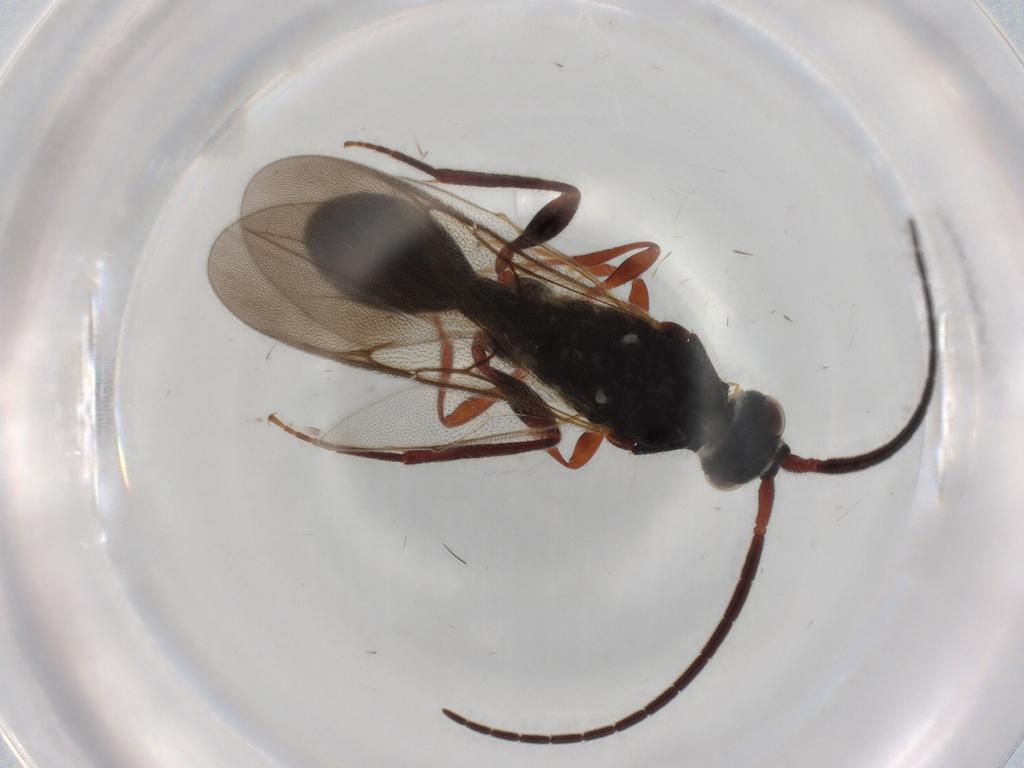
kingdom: Animalia
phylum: Arthropoda
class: Insecta
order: Hymenoptera
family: Diapriidae
